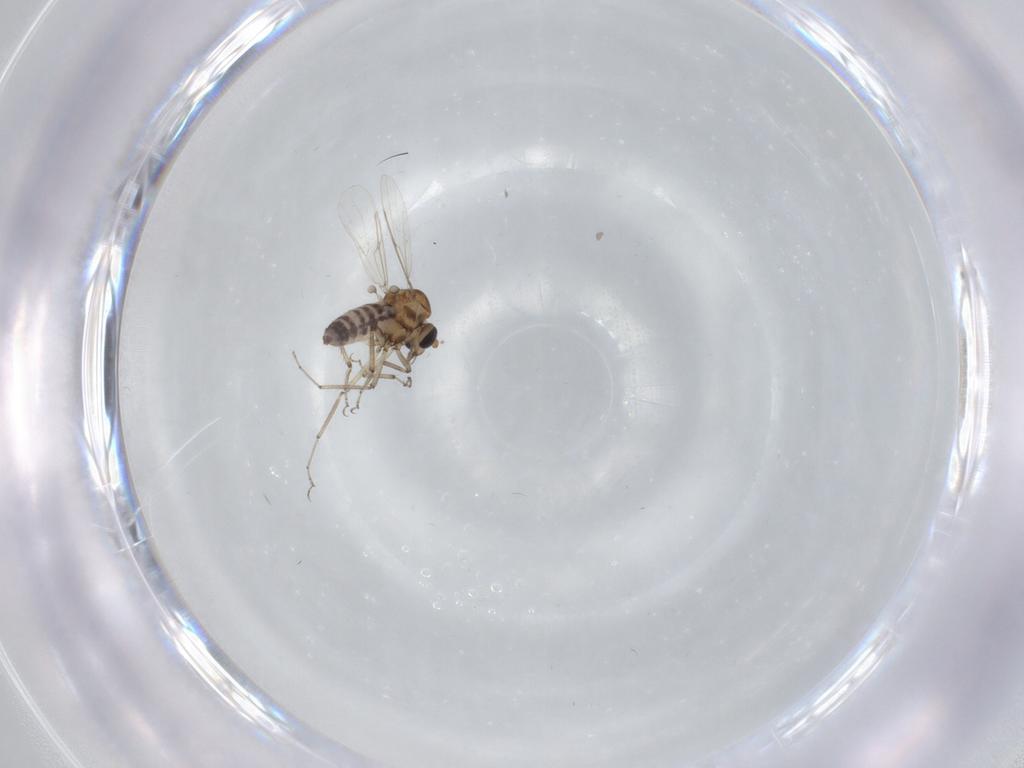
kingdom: Animalia
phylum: Arthropoda
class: Insecta
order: Diptera
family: Ceratopogonidae
